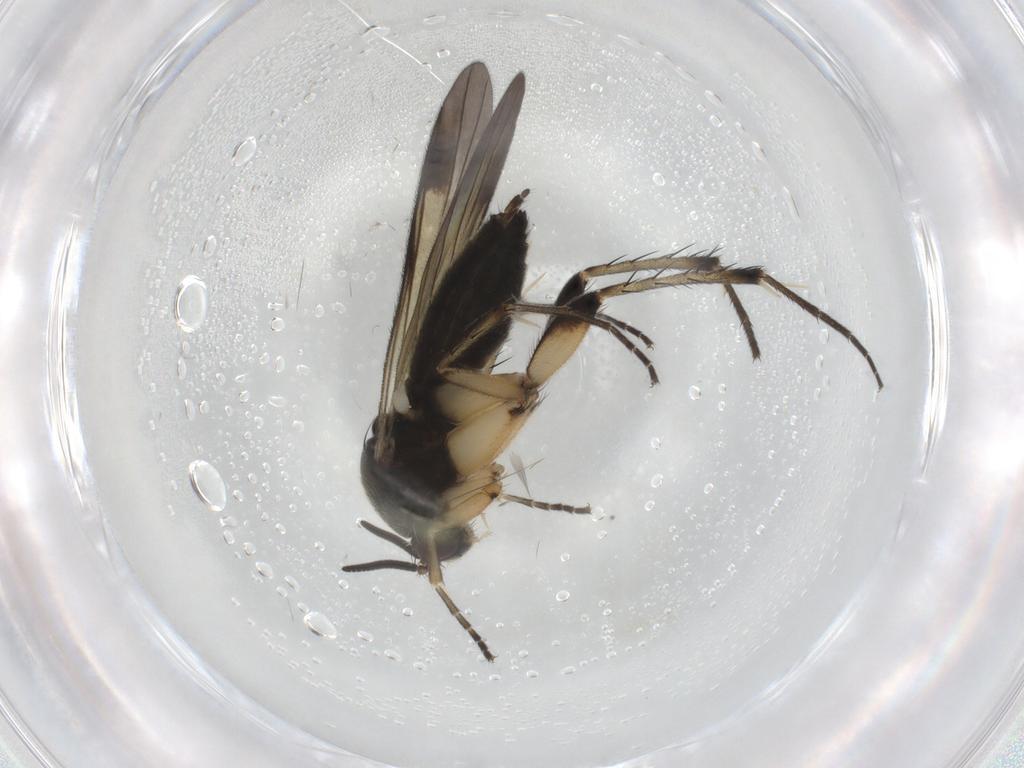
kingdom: Animalia
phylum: Arthropoda
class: Insecta
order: Diptera
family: Mycetophilidae
